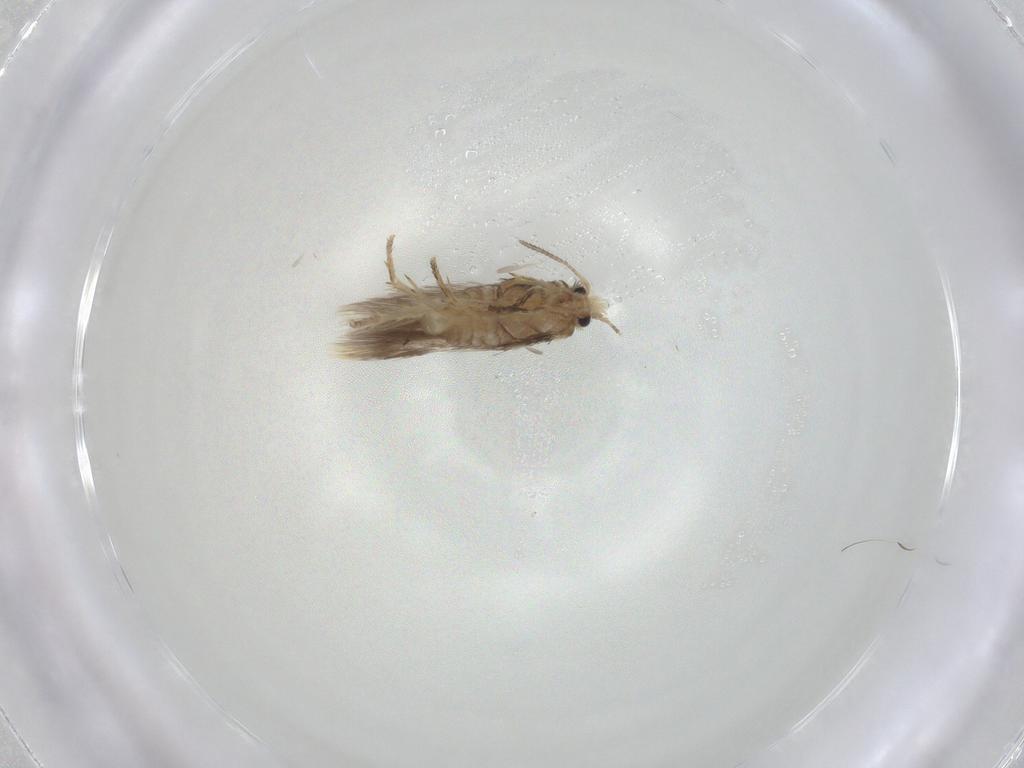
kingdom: Animalia
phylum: Arthropoda
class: Insecta
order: Lepidoptera
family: Nepticulidae
